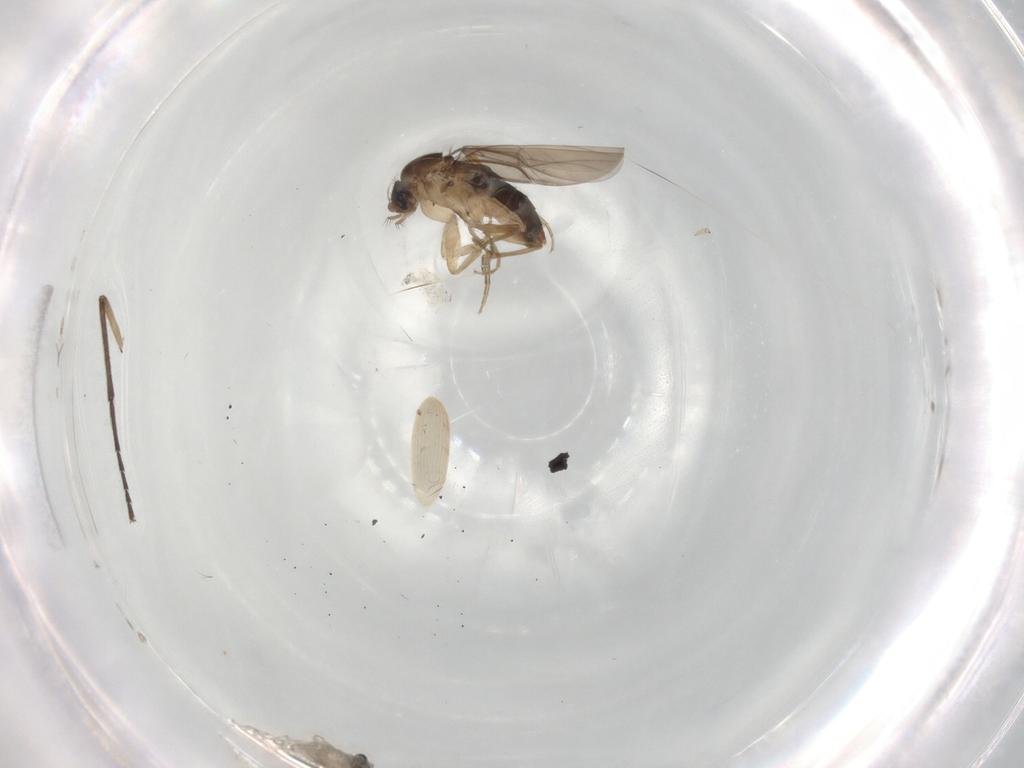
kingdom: Animalia
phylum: Arthropoda
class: Insecta
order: Diptera
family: Cecidomyiidae
